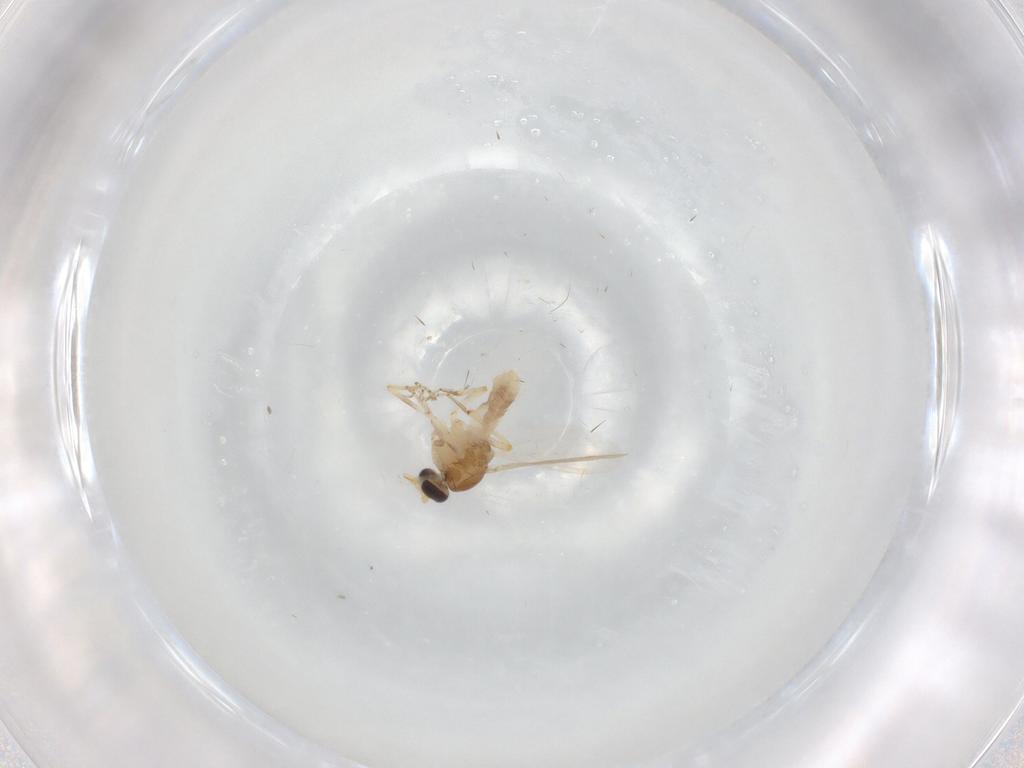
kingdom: Animalia
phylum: Arthropoda
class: Insecta
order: Diptera
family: Ceratopogonidae
